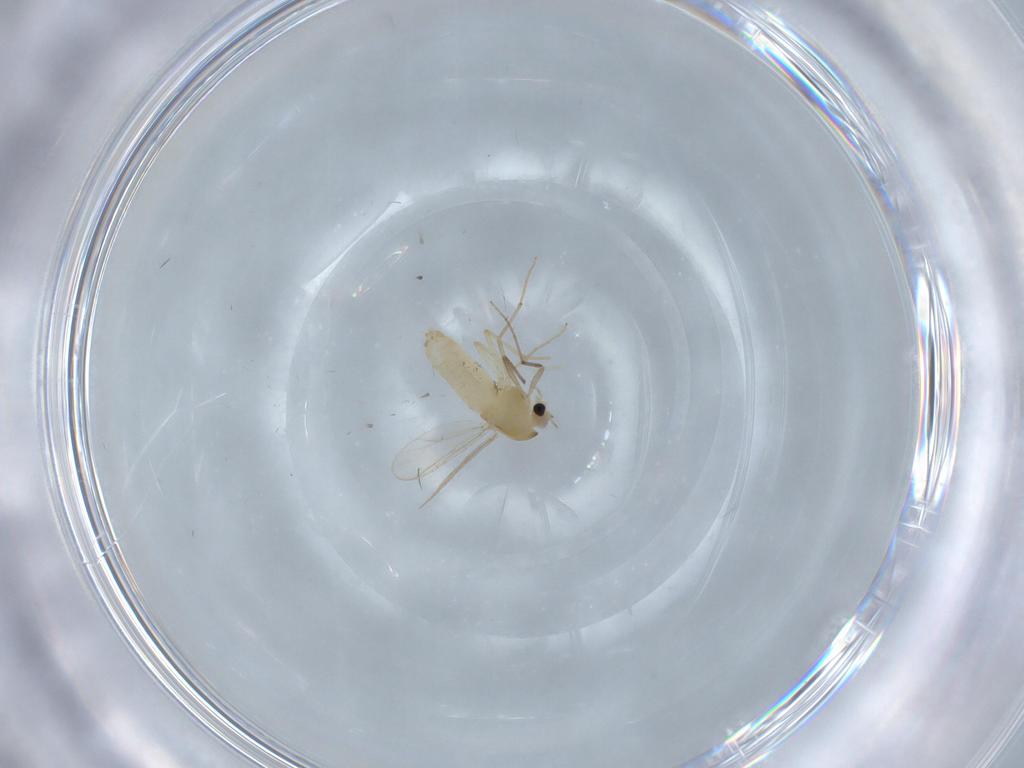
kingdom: Animalia
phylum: Arthropoda
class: Insecta
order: Diptera
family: Chironomidae
